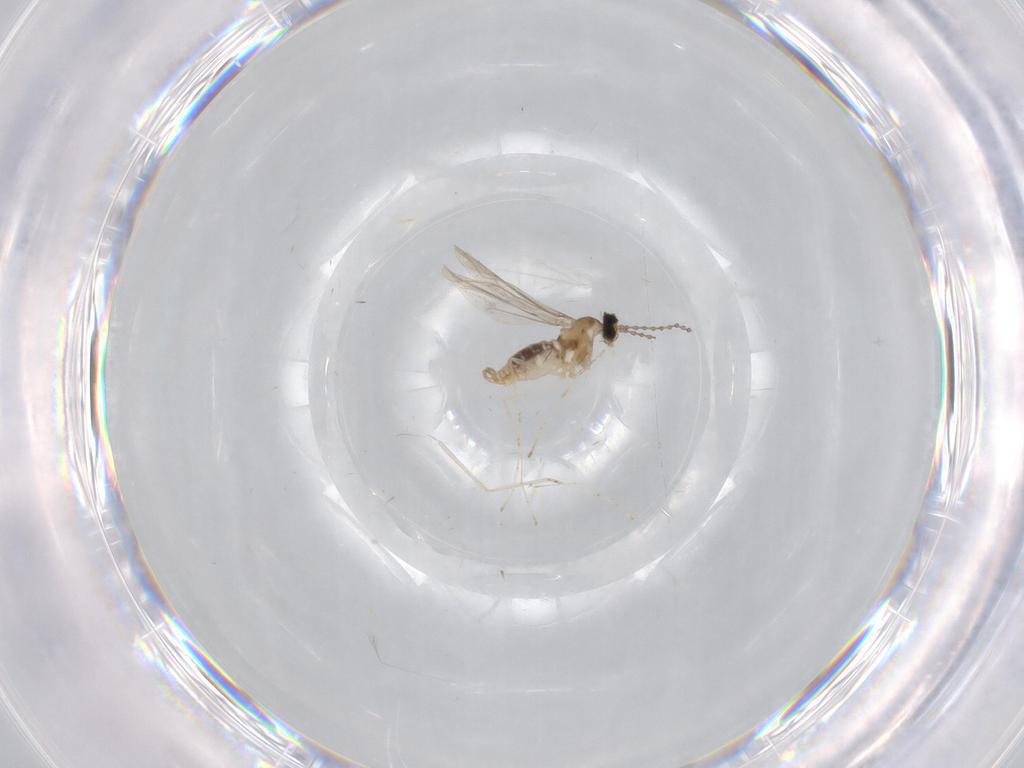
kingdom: Animalia
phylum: Arthropoda
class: Insecta
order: Diptera
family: Cecidomyiidae
